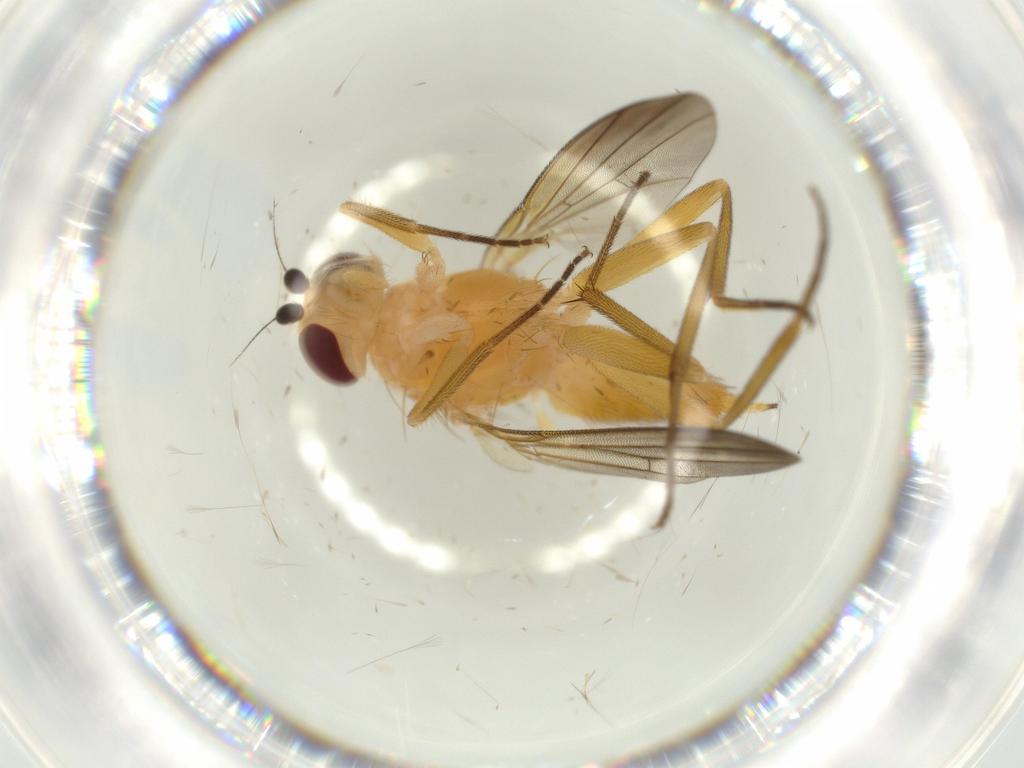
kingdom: Animalia
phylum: Arthropoda
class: Insecta
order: Diptera
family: Clusiidae
